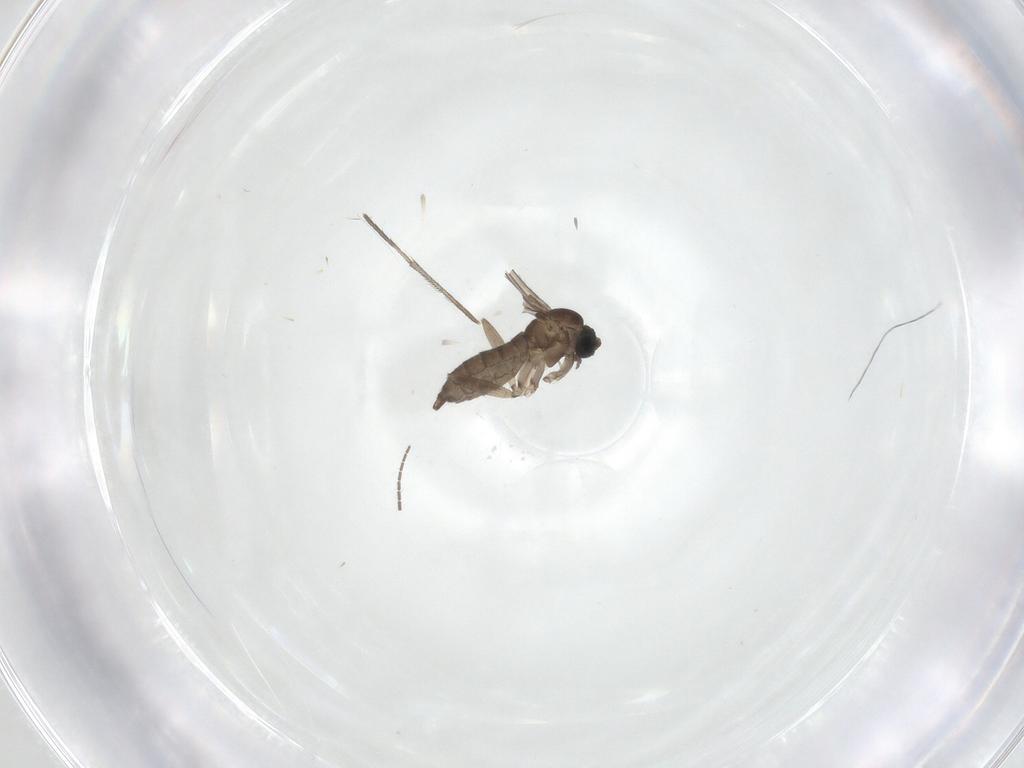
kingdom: Animalia
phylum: Arthropoda
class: Insecta
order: Diptera
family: Sciaridae
